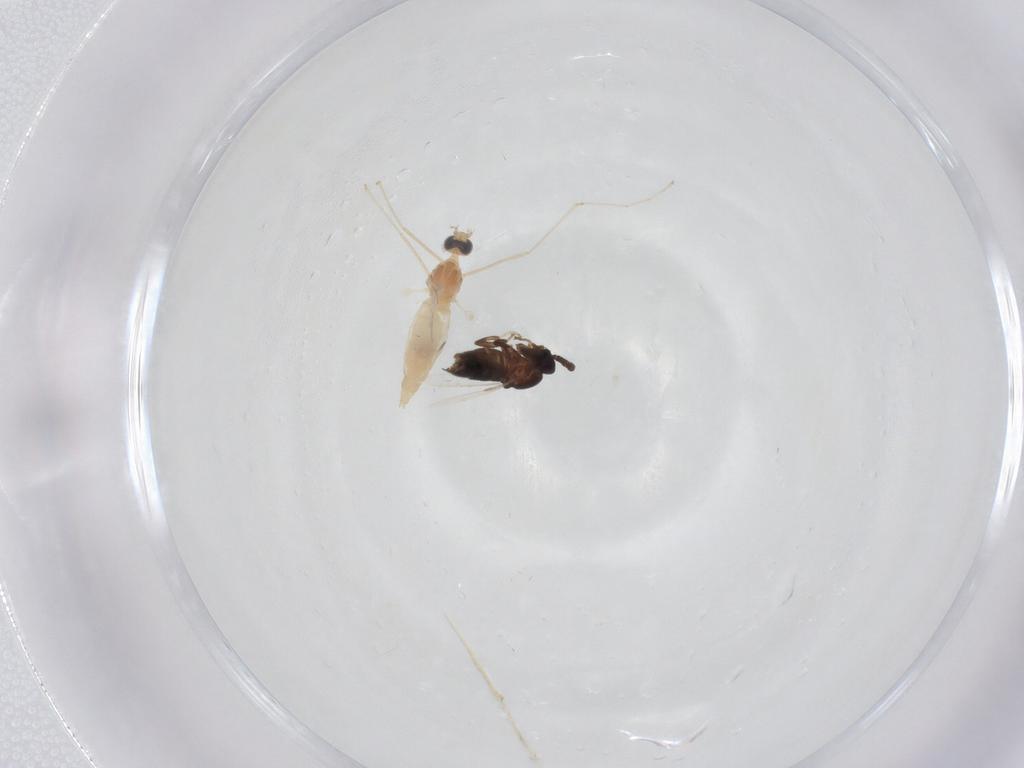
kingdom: Animalia
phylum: Arthropoda
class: Insecta
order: Diptera
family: Cecidomyiidae
